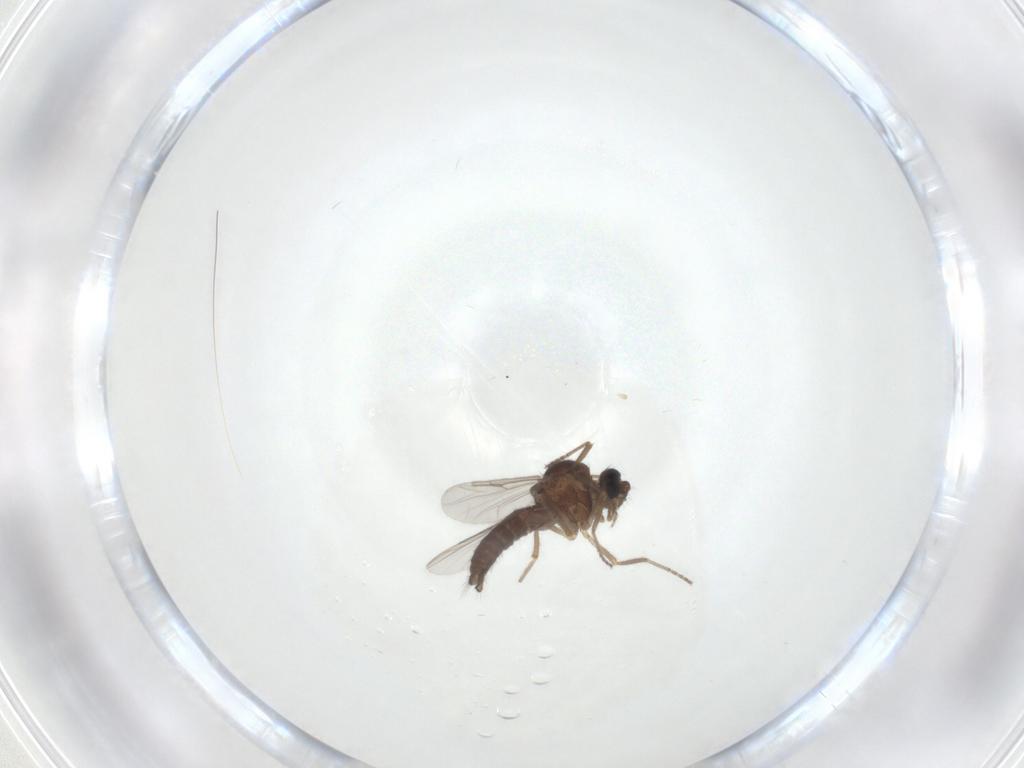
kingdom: Animalia
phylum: Arthropoda
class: Insecta
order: Diptera
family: Ceratopogonidae
